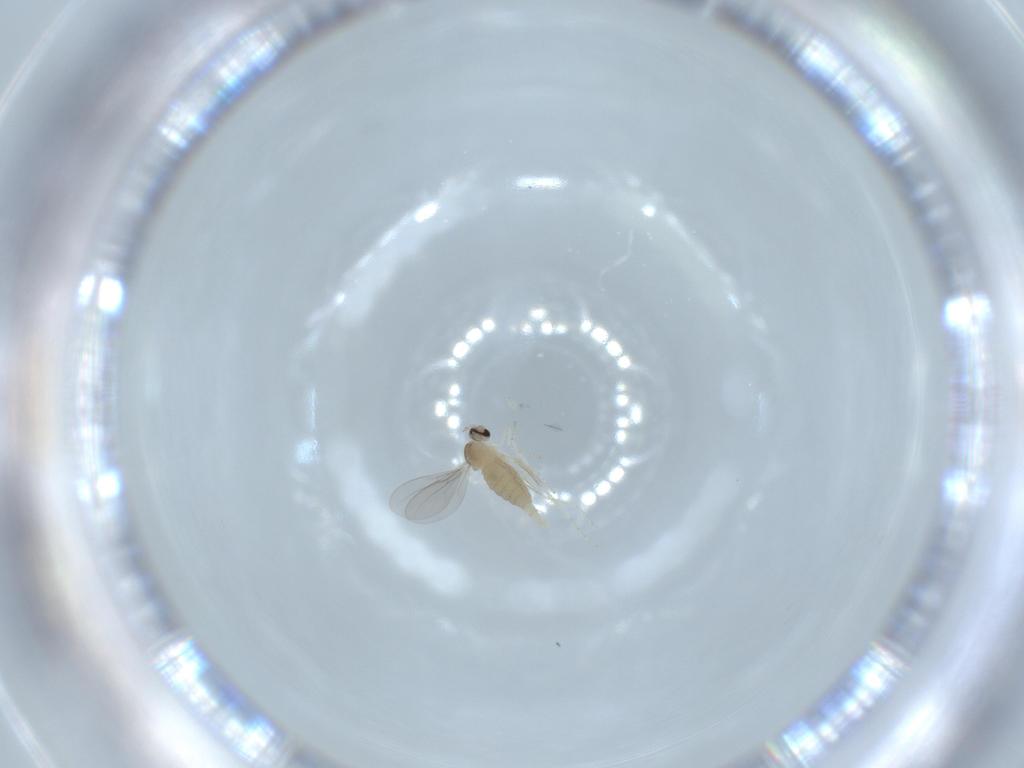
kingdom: Animalia
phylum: Arthropoda
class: Insecta
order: Diptera
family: Cecidomyiidae
